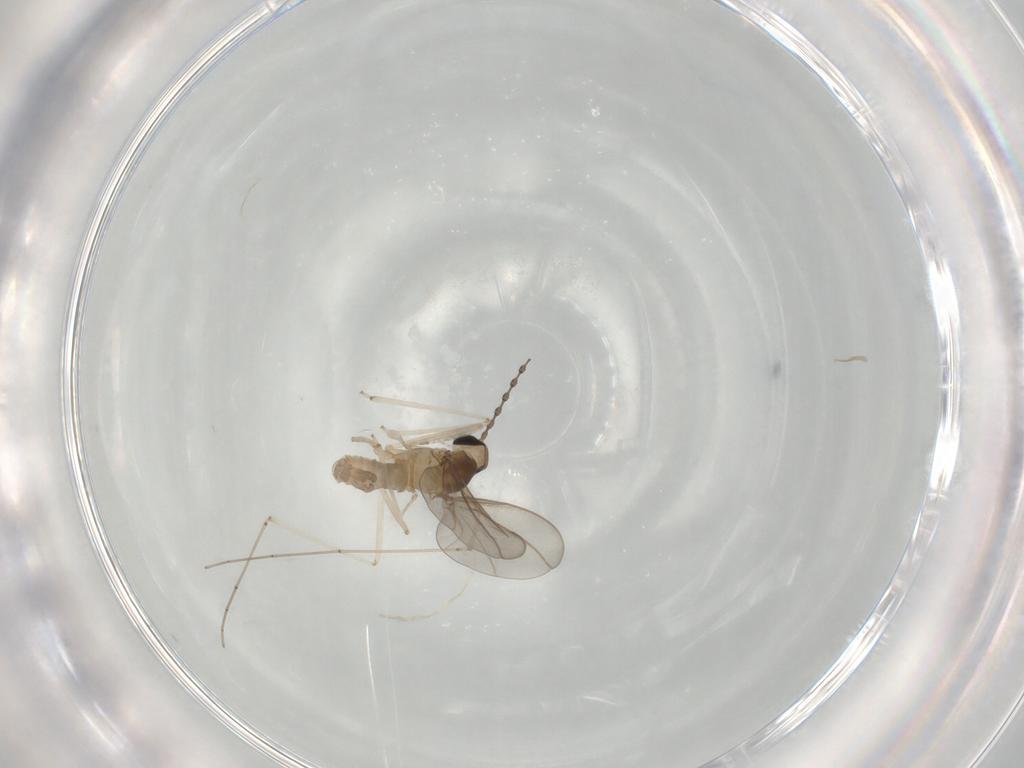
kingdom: Animalia
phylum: Arthropoda
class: Insecta
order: Diptera
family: Cecidomyiidae
